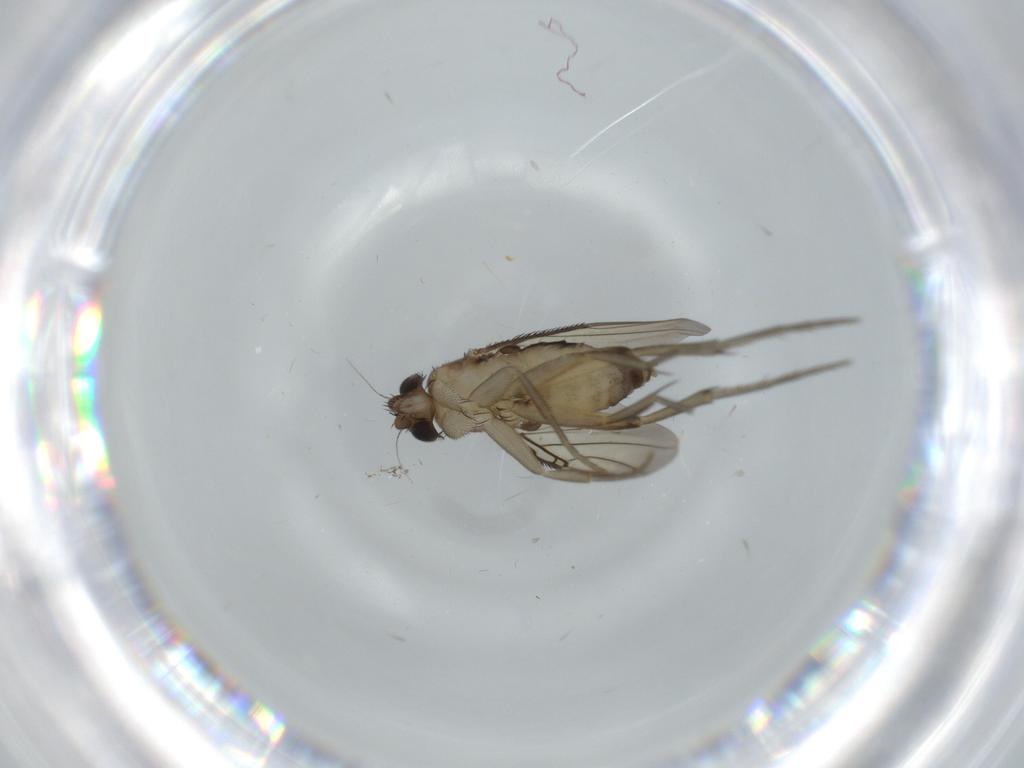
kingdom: Animalia
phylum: Arthropoda
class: Insecta
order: Diptera
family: Phoridae
